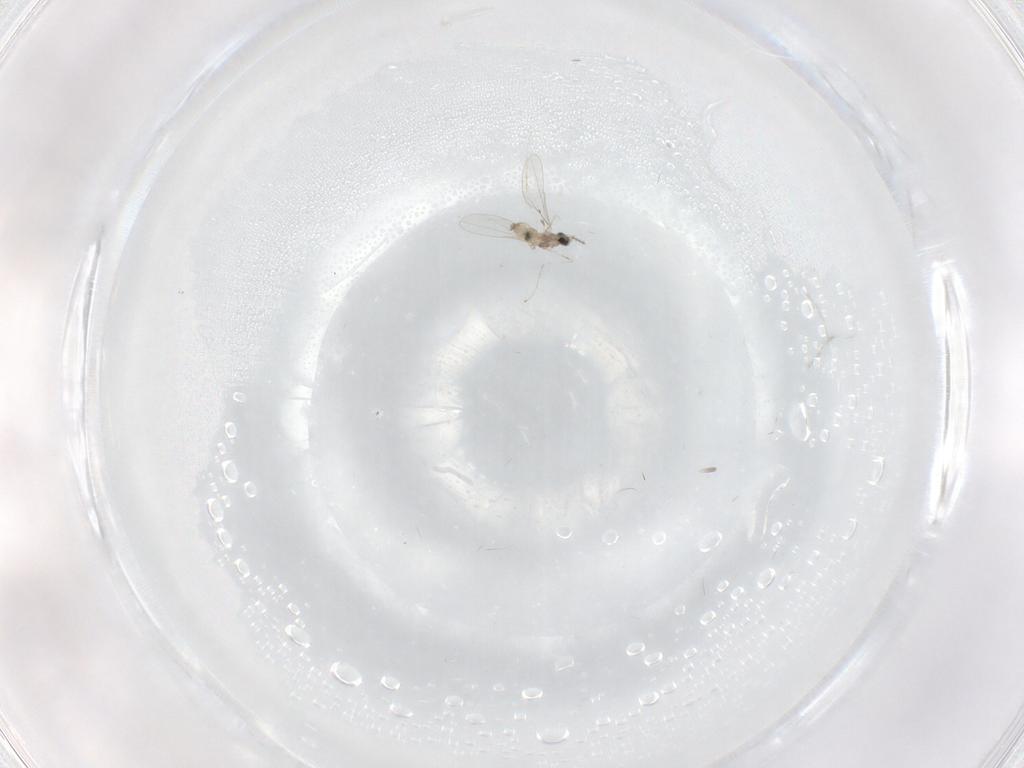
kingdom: Animalia
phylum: Arthropoda
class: Insecta
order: Diptera
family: Cecidomyiidae
